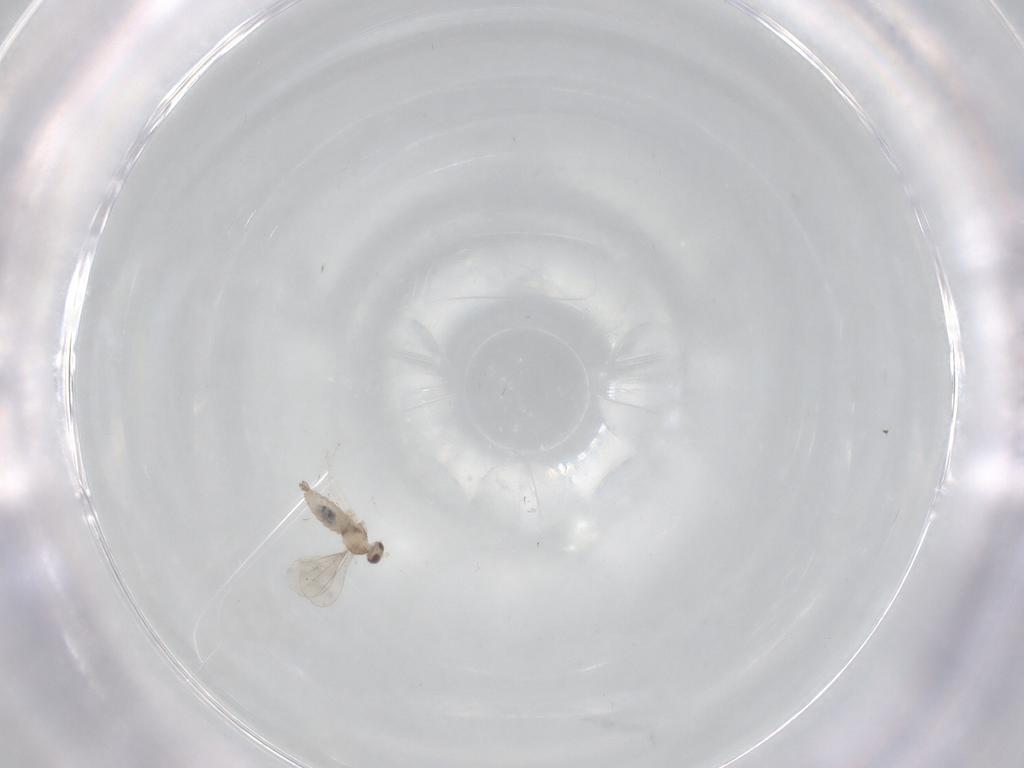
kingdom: Animalia
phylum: Arthropoda
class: Insecta
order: Diptera
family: Cecidomyiidae
